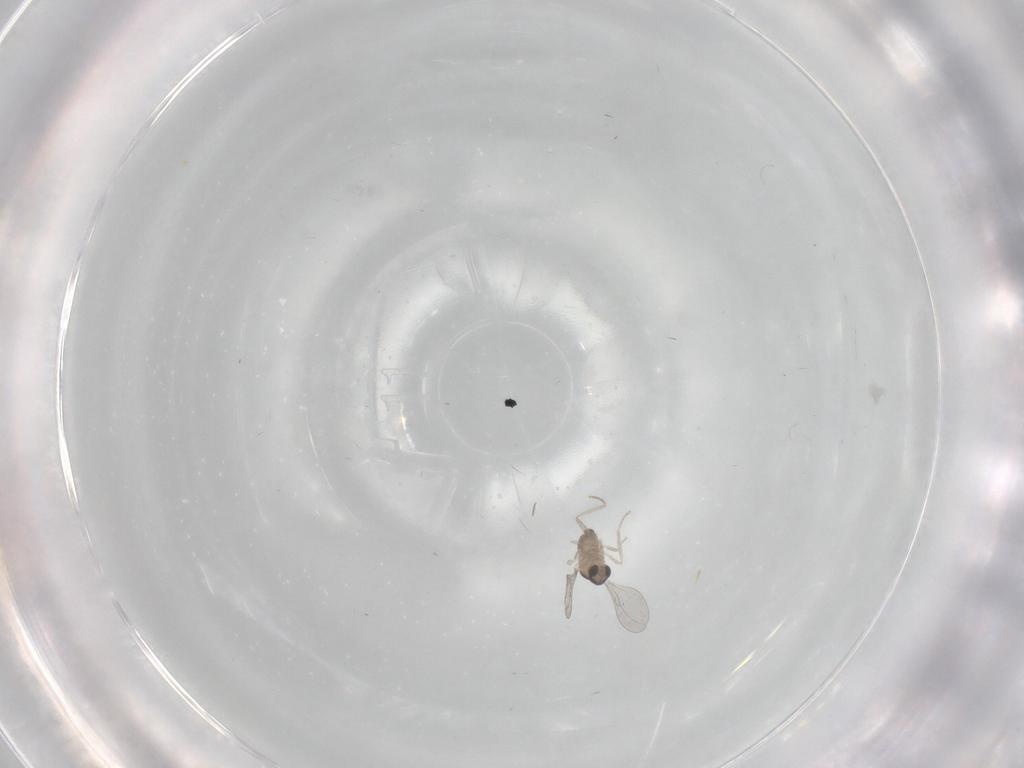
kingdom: Animalia
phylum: Arthropoda
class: Insecta
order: Diptera
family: Cecidomyiidae
